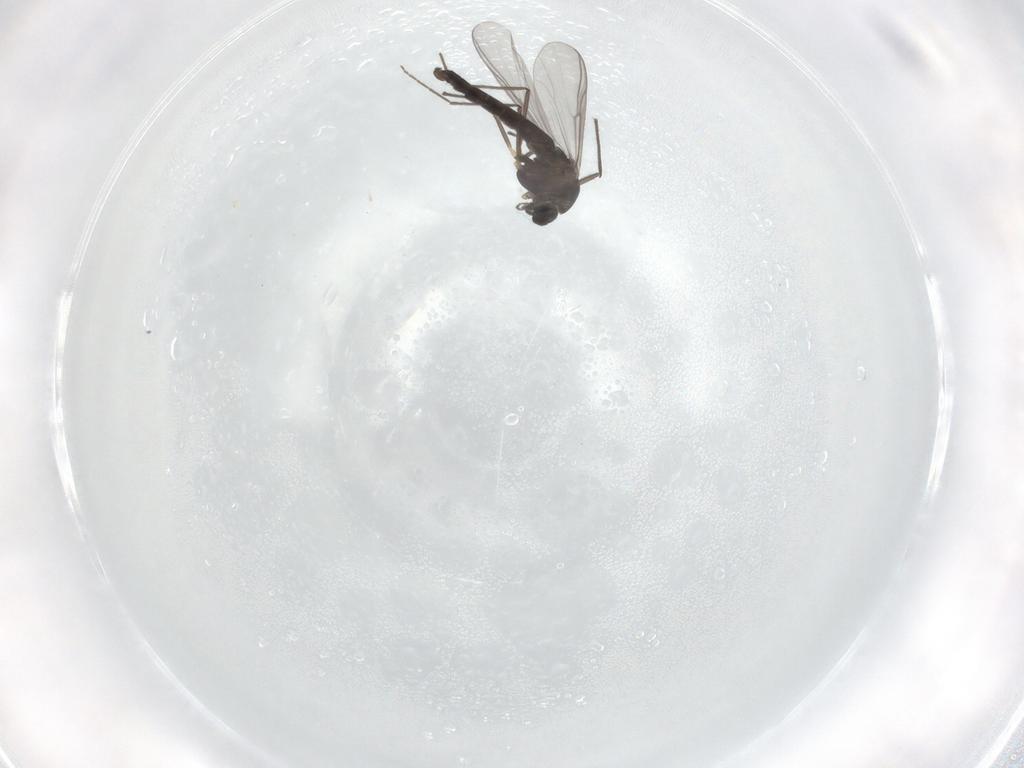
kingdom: Animalia
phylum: Arthropoda
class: Insecta
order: Diptera
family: Chironomidae
